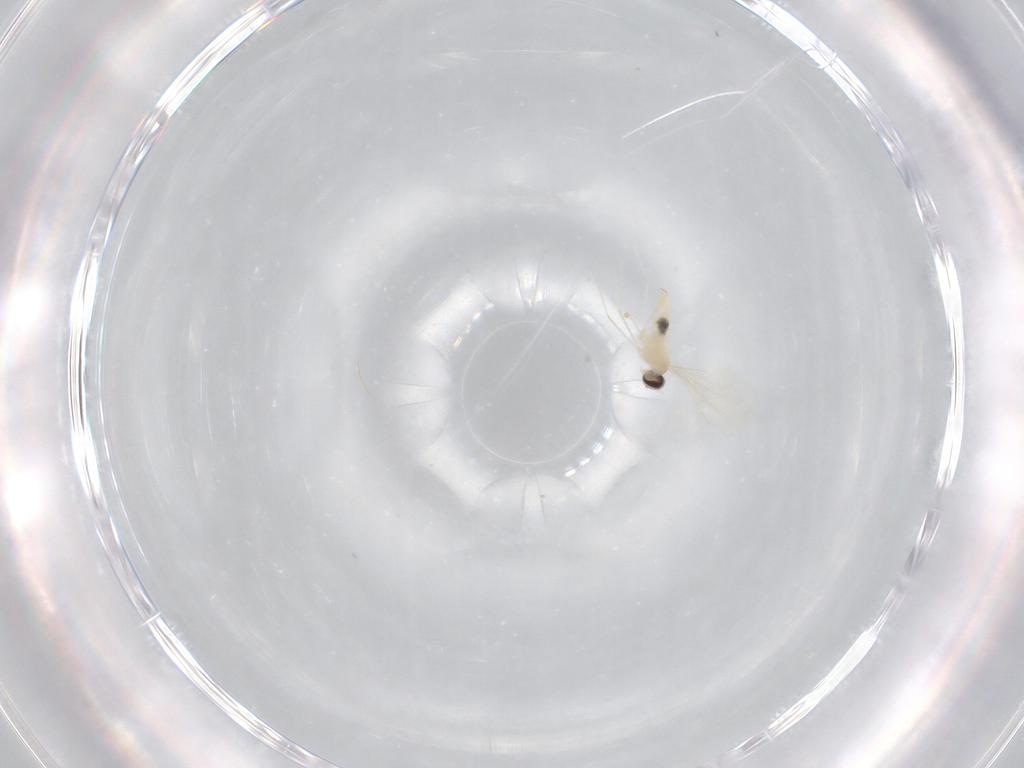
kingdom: Animalia
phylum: Arthropoda
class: Insecta
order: Diptera
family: Cecidomyiidae
